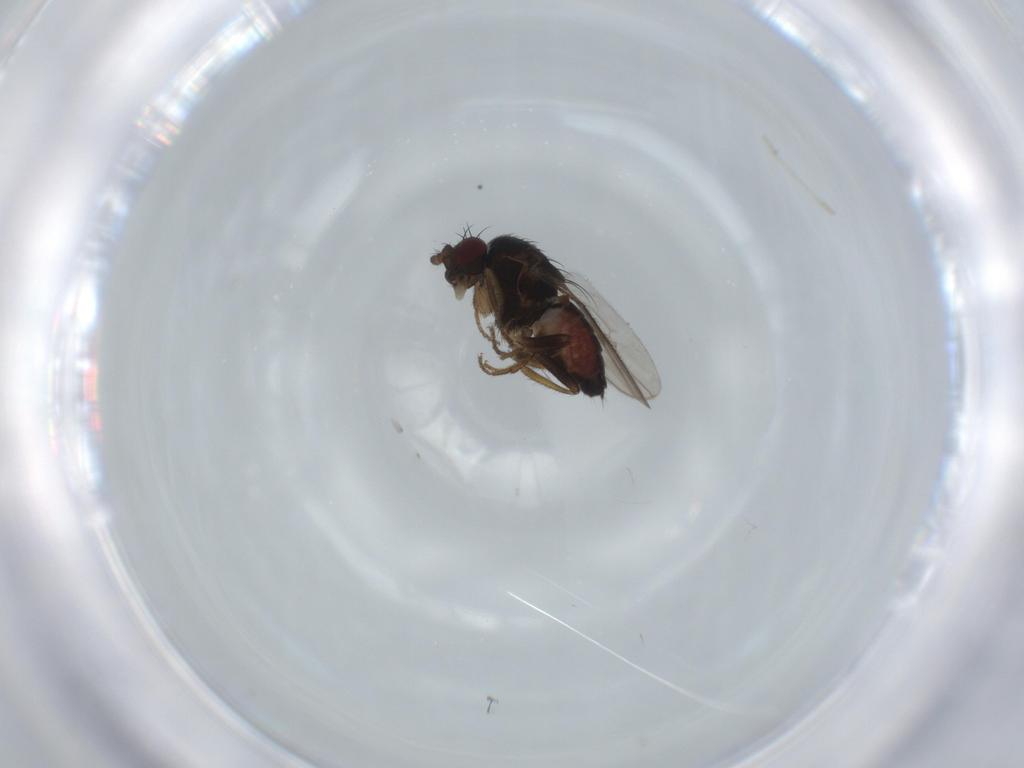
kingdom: Animalia
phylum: Arthropoda
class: Insecta
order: Diptera
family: Sphaeroceridae
